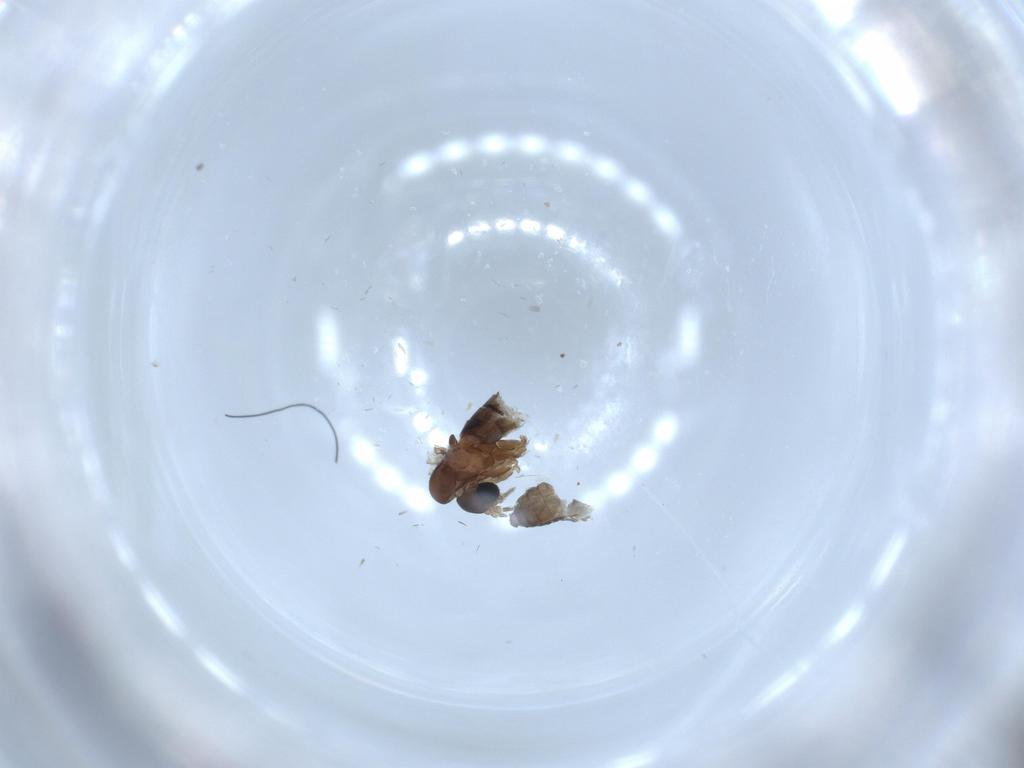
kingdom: Animalia
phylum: Arthropoda
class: Insecta
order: Diptera
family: Psychodidae
